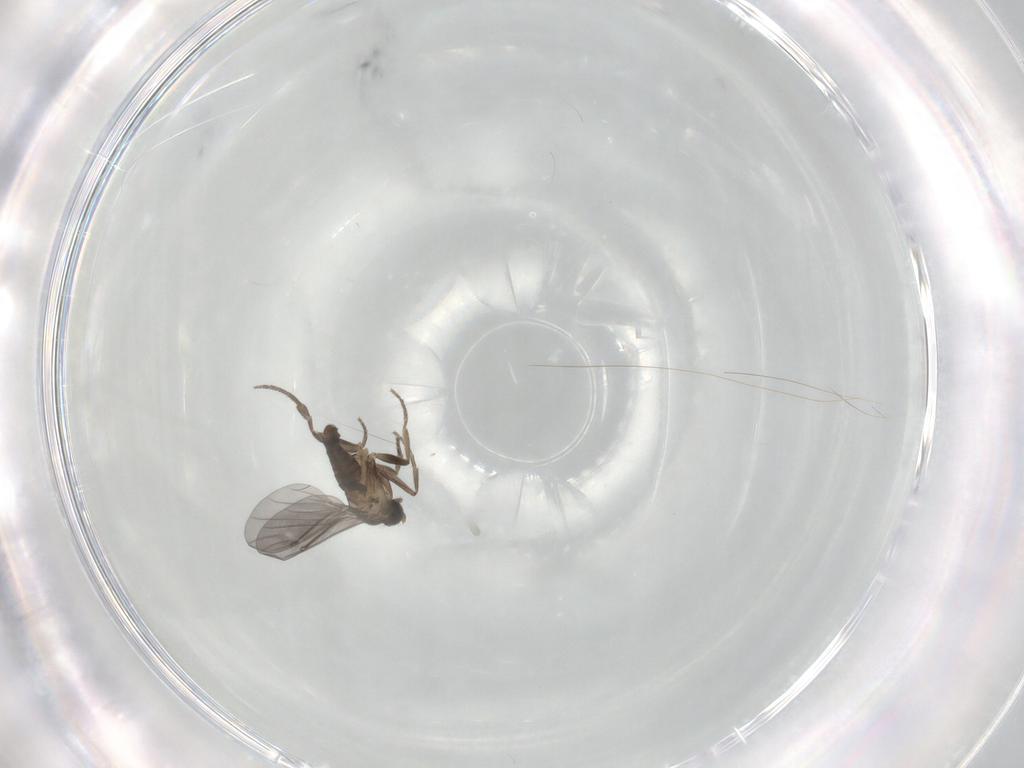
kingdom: Animalia
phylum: Arthropoda
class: Insecta
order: Diptera
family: Phoridae
